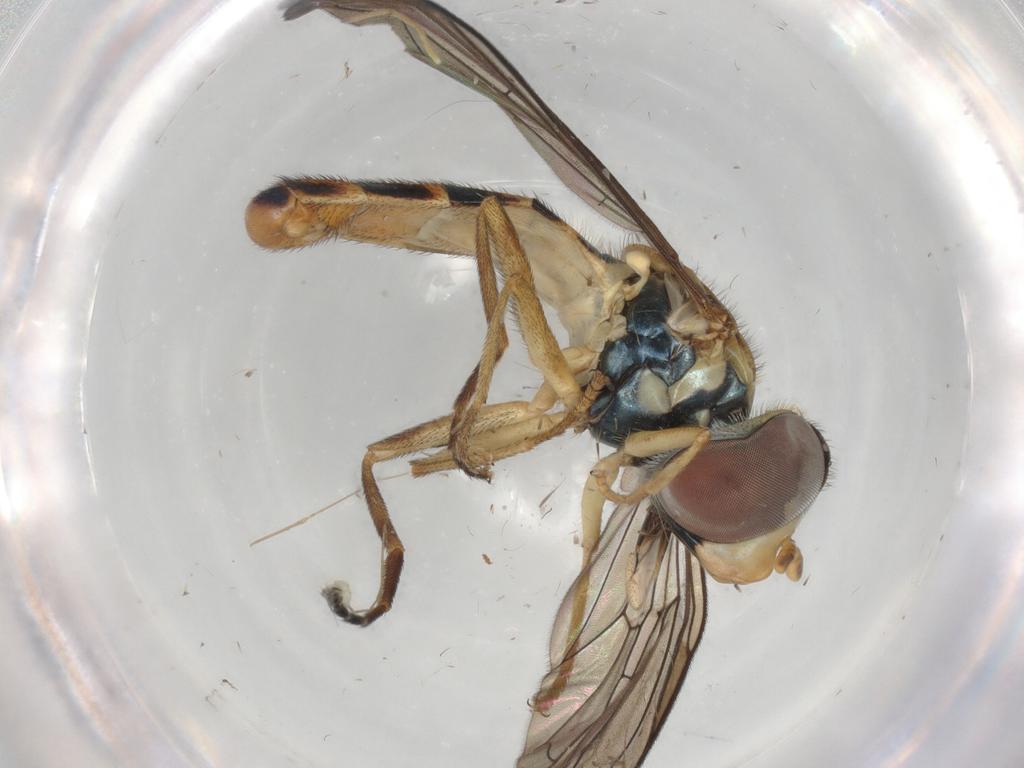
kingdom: Animalia
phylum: Arthropoda
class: Insecta
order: Diptera
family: Syrphidae
